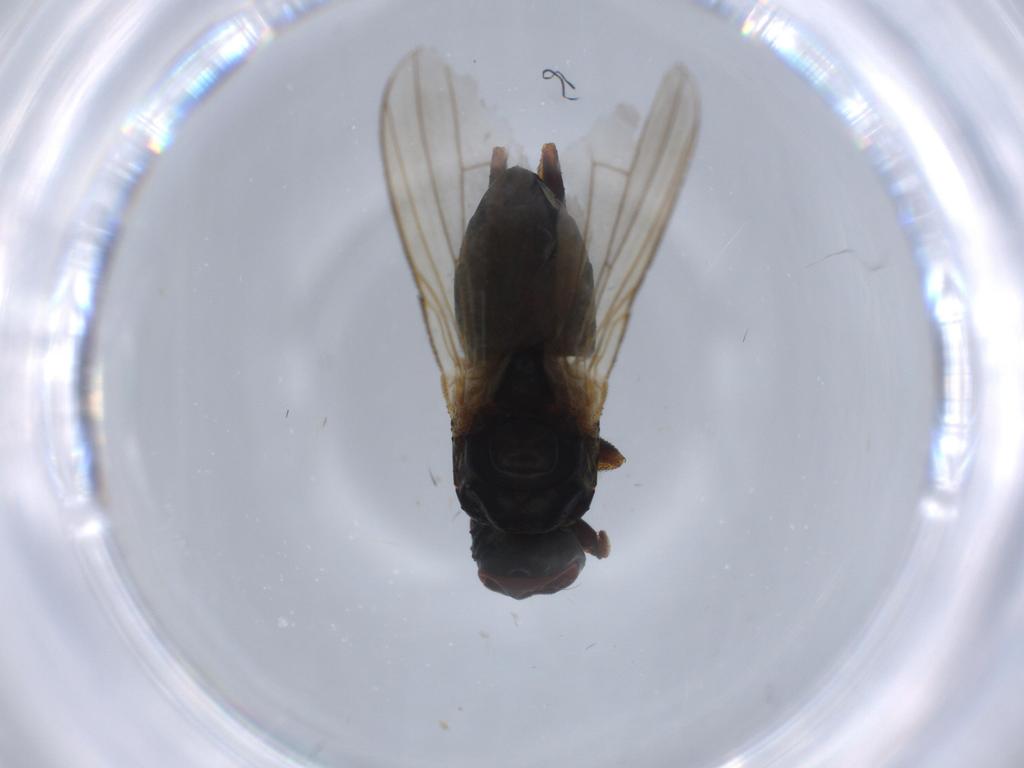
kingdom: Animalia
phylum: Arthropoda
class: Insecta
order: Diptera
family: Muscidae
